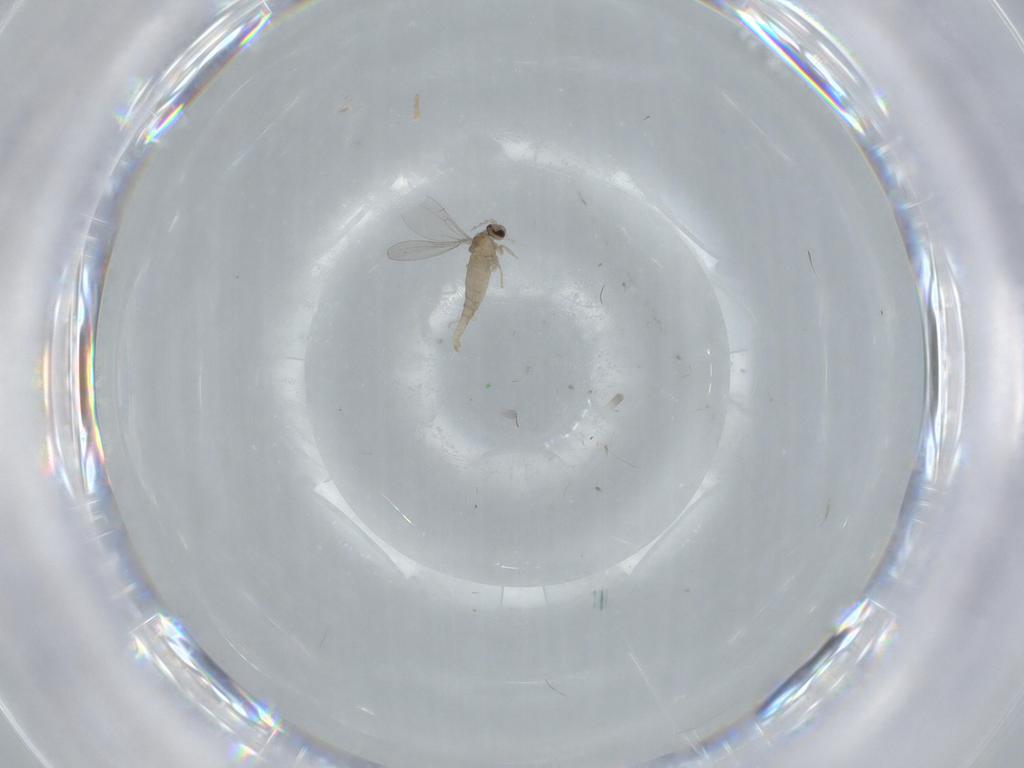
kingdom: Animalia
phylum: Arthropoda
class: Insecta
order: Diptera
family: Cecidomyiidae
